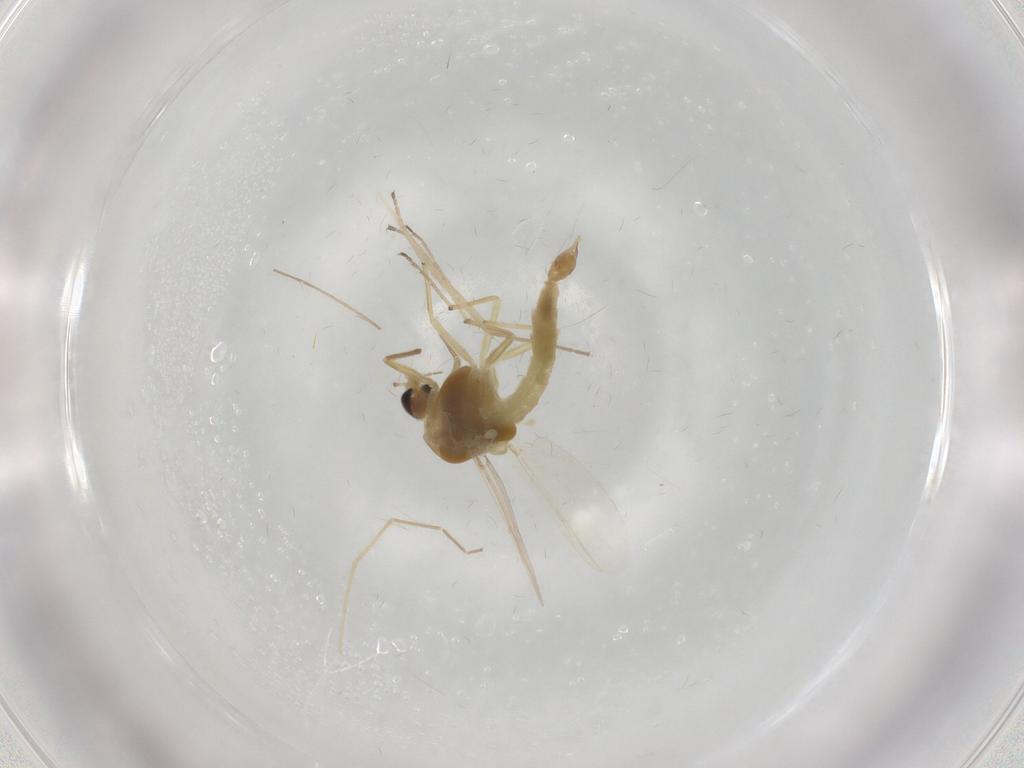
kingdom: Animalia
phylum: Arthropoda
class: Insecta
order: Diptera
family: Chironomidae
